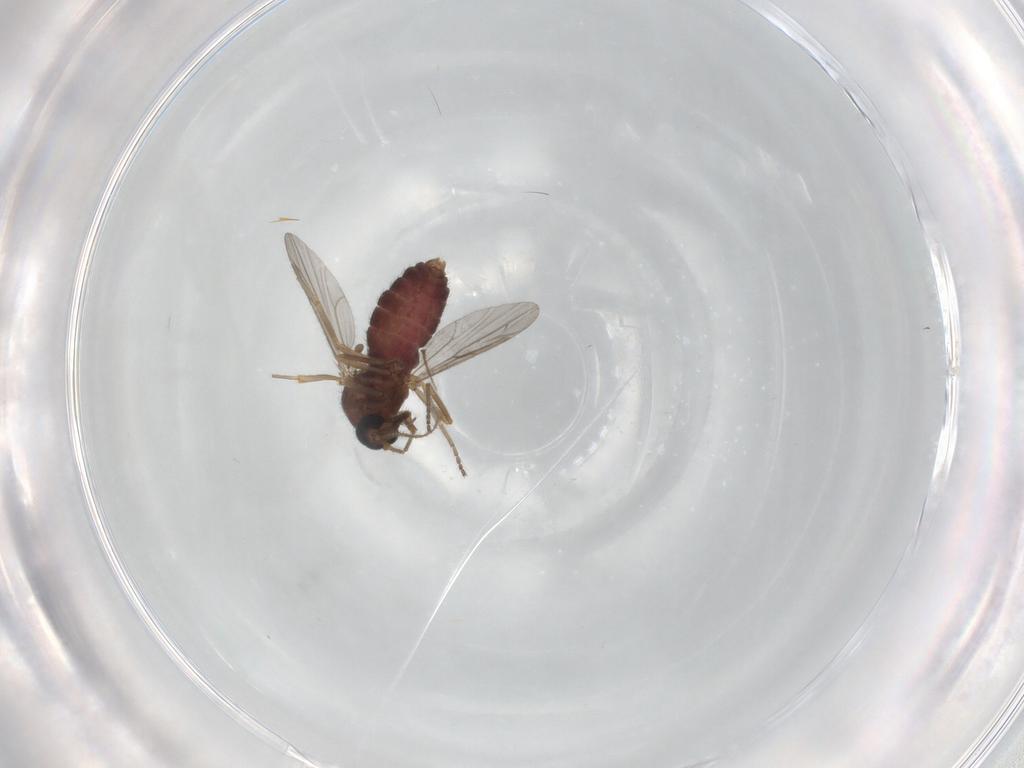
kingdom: Animalia
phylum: Arthropoda
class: Insecta
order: Diptera
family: Ceratopogonidae
